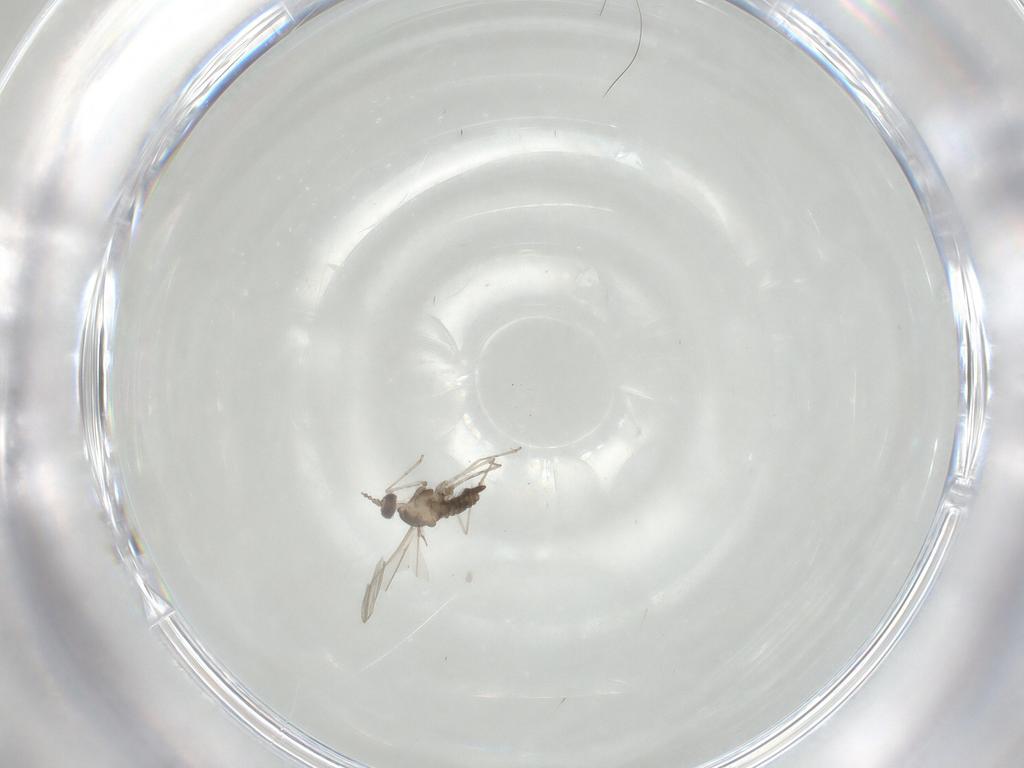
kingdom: Animalia
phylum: Arthropoda
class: Insecta
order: Diptera
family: Cecidomyiidae
